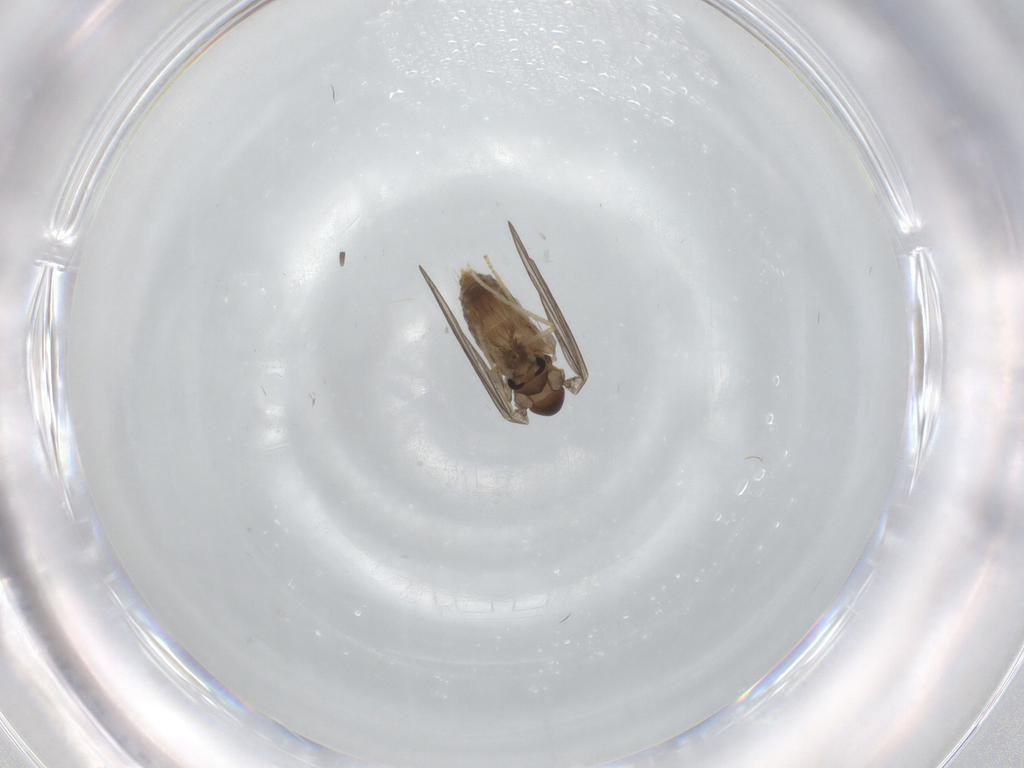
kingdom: Animalia
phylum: Arthropoda
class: Insecta
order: Diptera
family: Psychodidae
